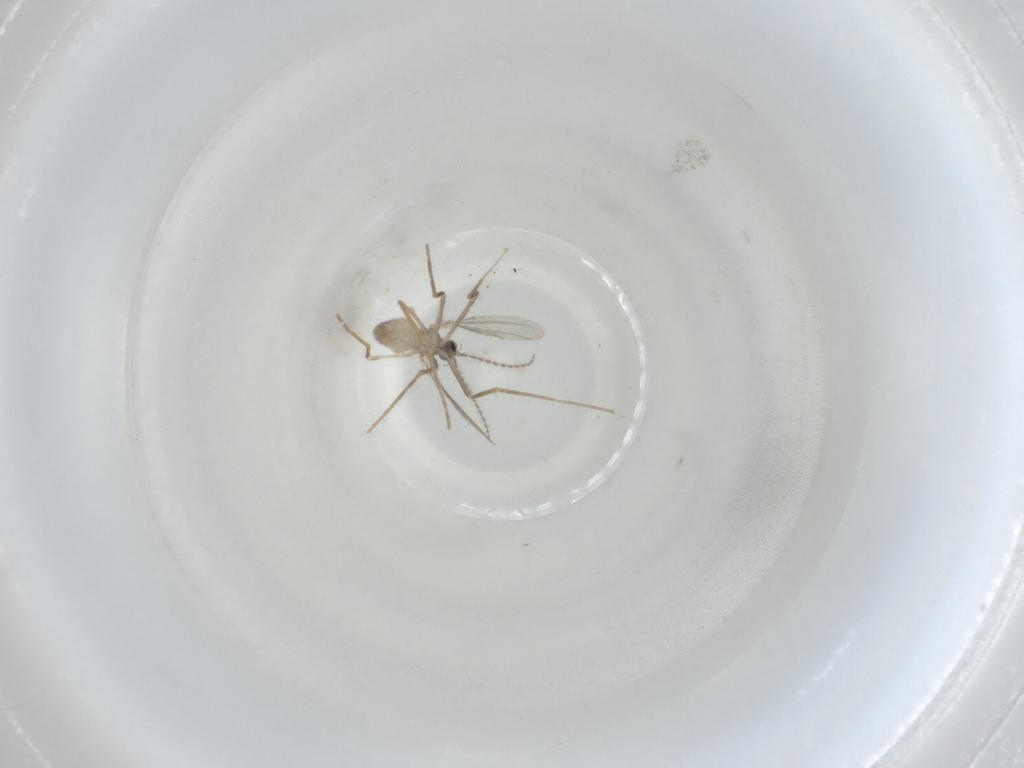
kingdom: Animalia
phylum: Arthropoda
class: Insecta
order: Diptera
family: Cecidomyiidae
